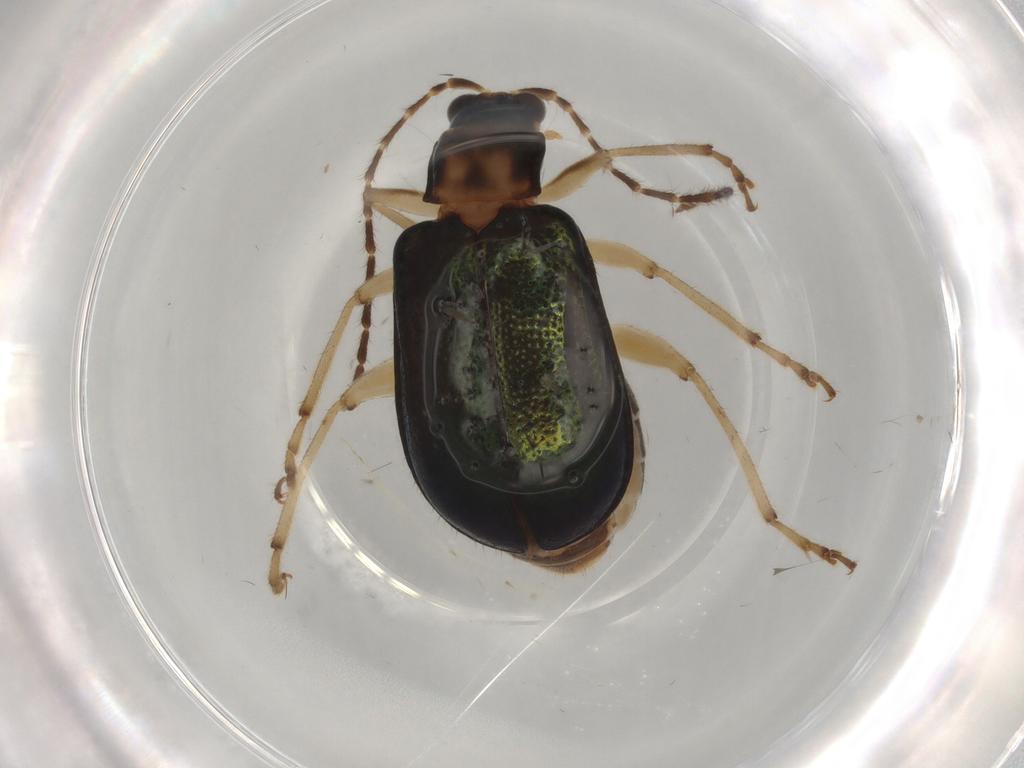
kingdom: Animalia
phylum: Arthropoda
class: Insecta
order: Coleoptera
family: Chrysomelidae
